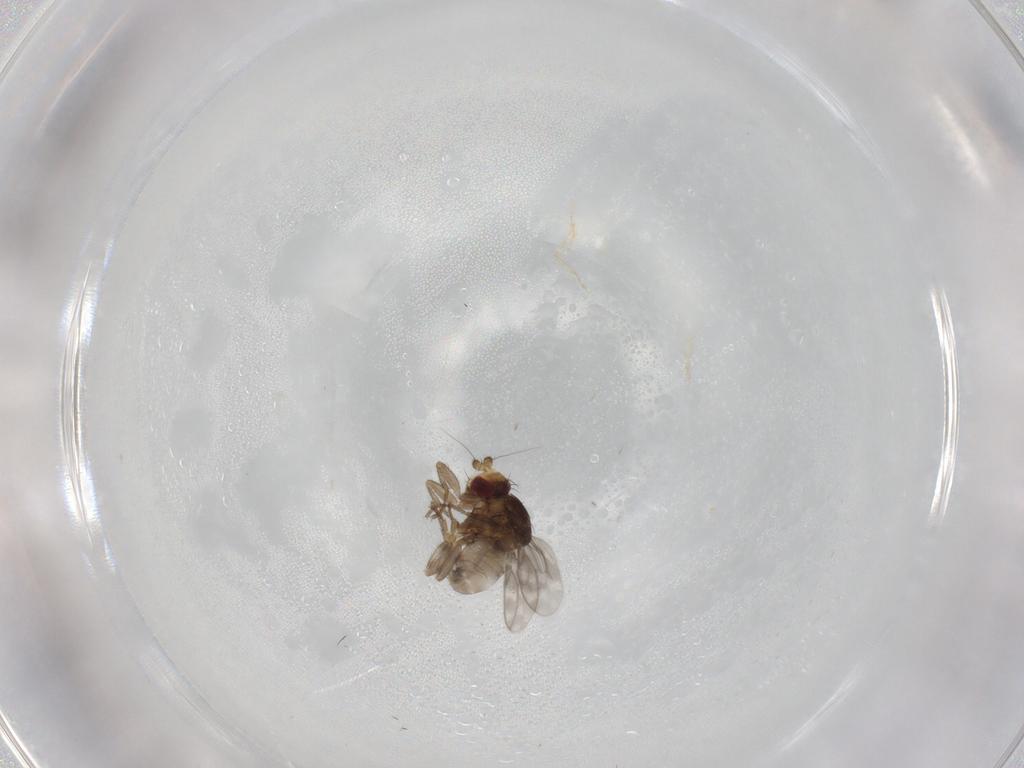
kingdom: Animalia
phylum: Arthropoda
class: Insecta
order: Diptera
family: Sphaeroceridae
